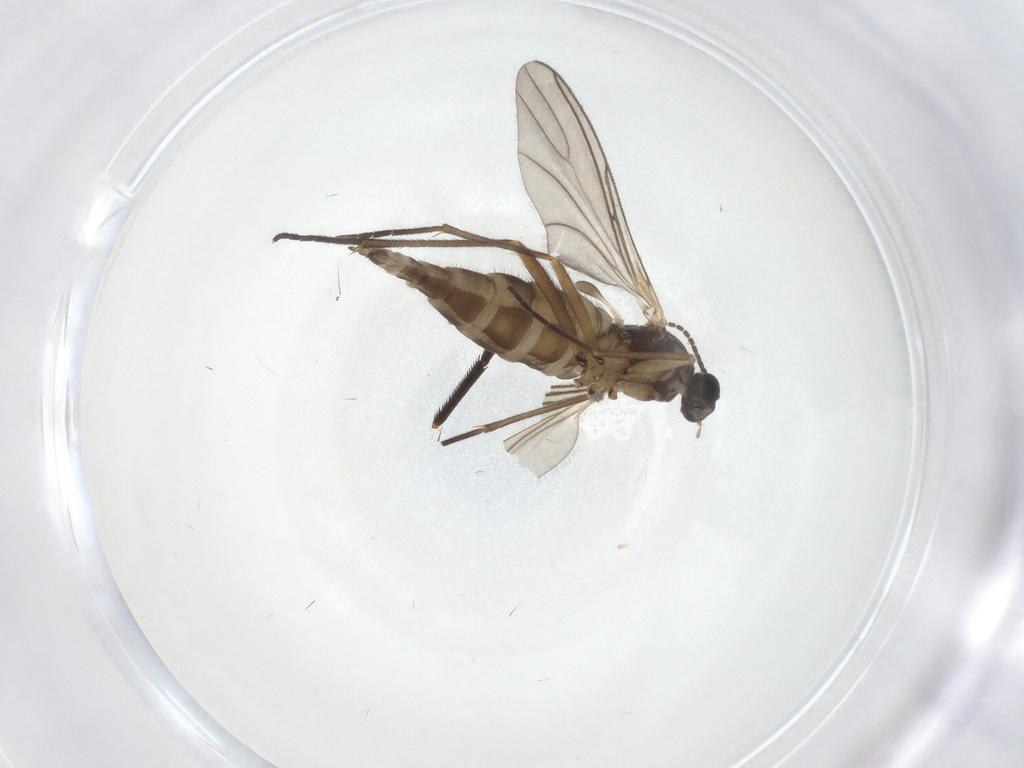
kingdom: Animalia
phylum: Arthropoda
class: Insecta
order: Diptera
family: Sciaridae
